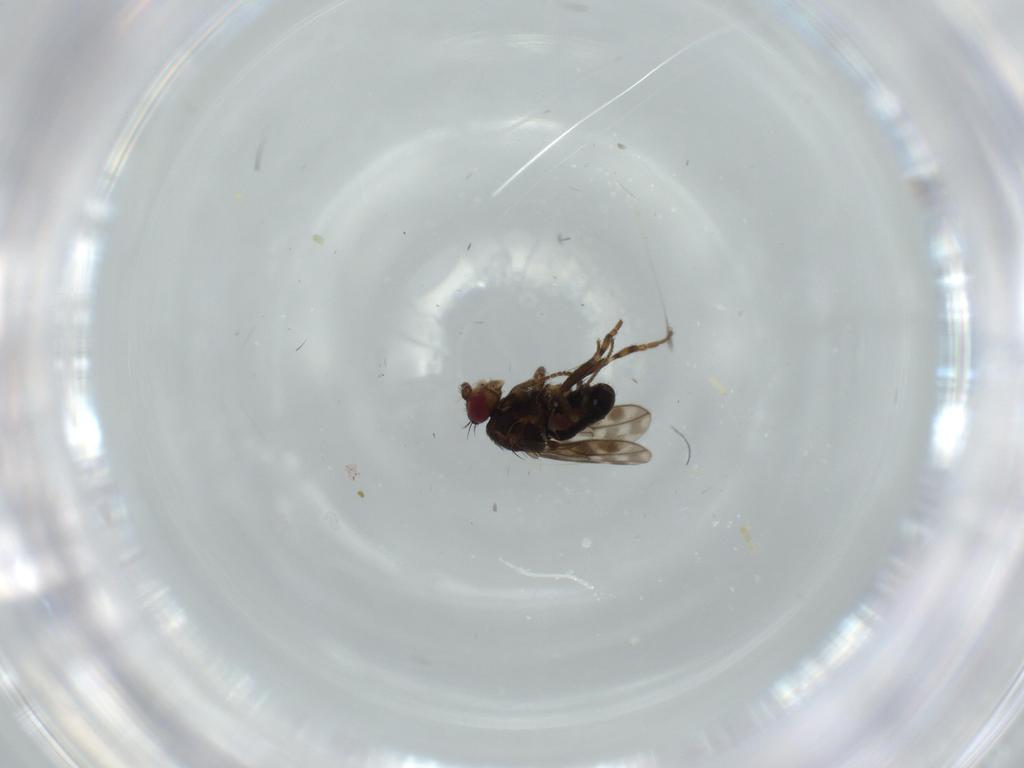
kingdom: Animalia
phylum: Arthropoda
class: Insecta
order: Diptera
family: Sphaeroceridae
